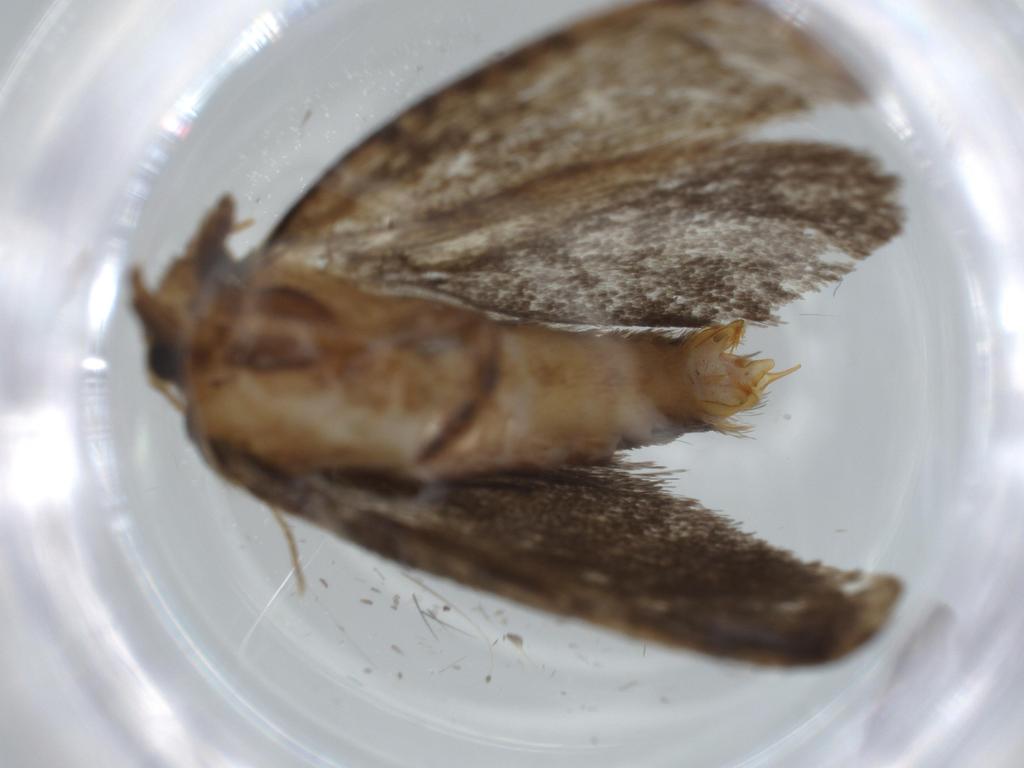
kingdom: Animalia
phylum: Arthropoda
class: Insecta
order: Lepidoptera
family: Tineidae
